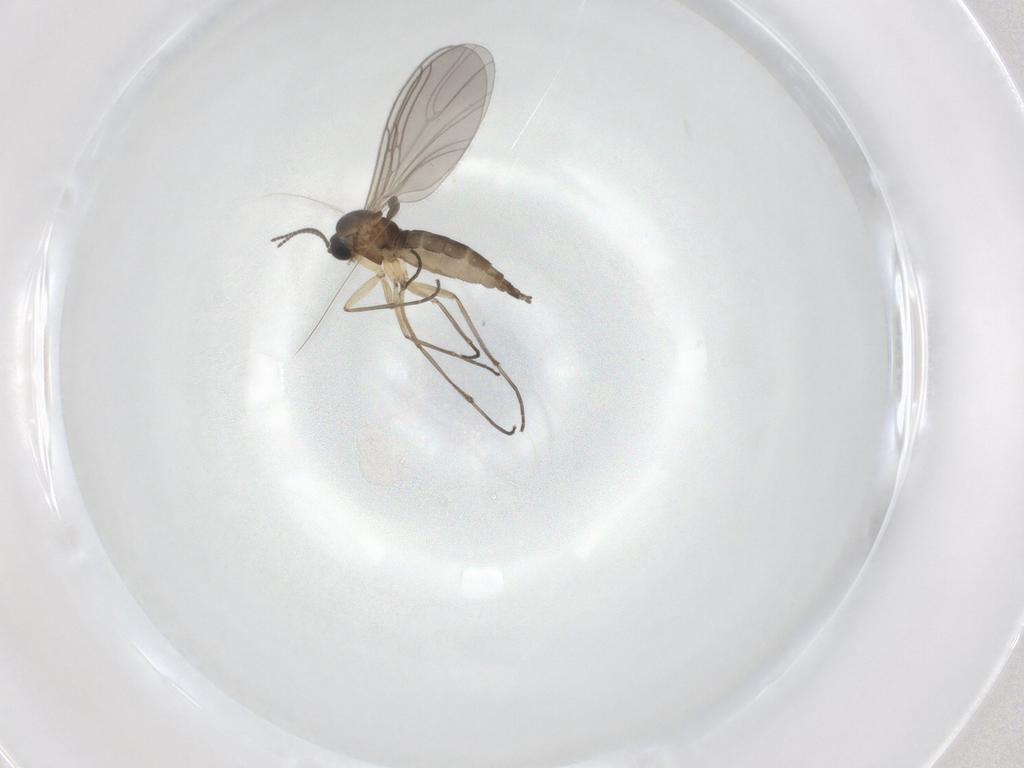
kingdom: Animalia
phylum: Arthropoda
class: Insecta
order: Diptera
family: Sciaridae
